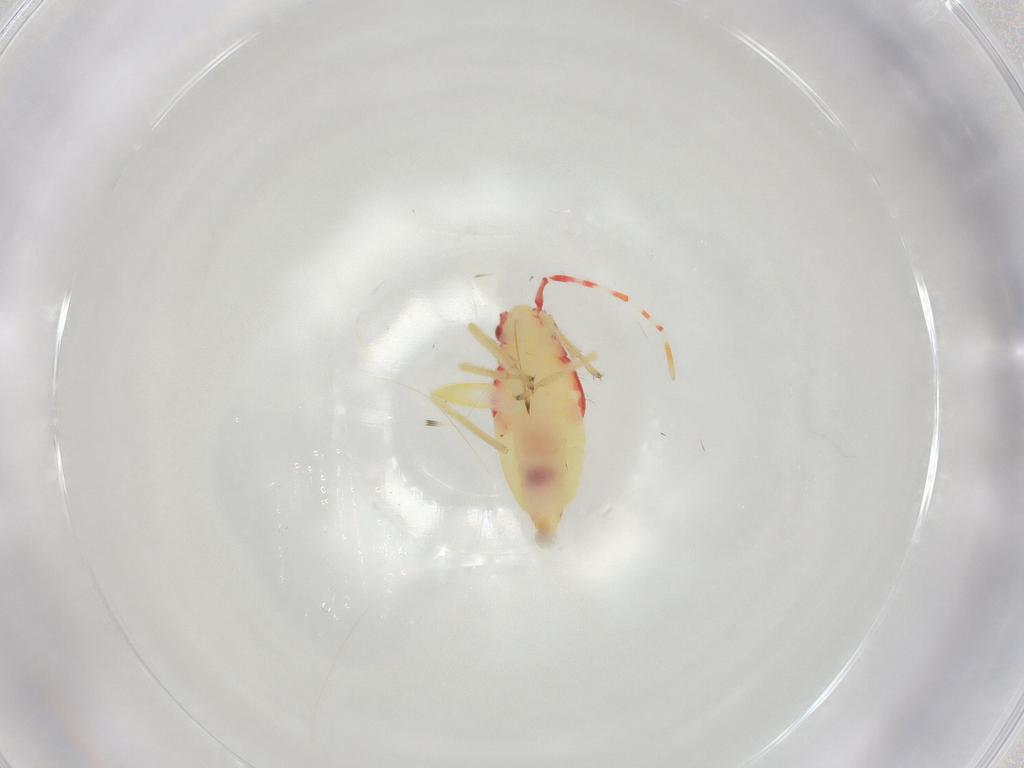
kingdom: Animalia
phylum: Arthropoda
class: Insecta
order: Hemiptera
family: Miridae
